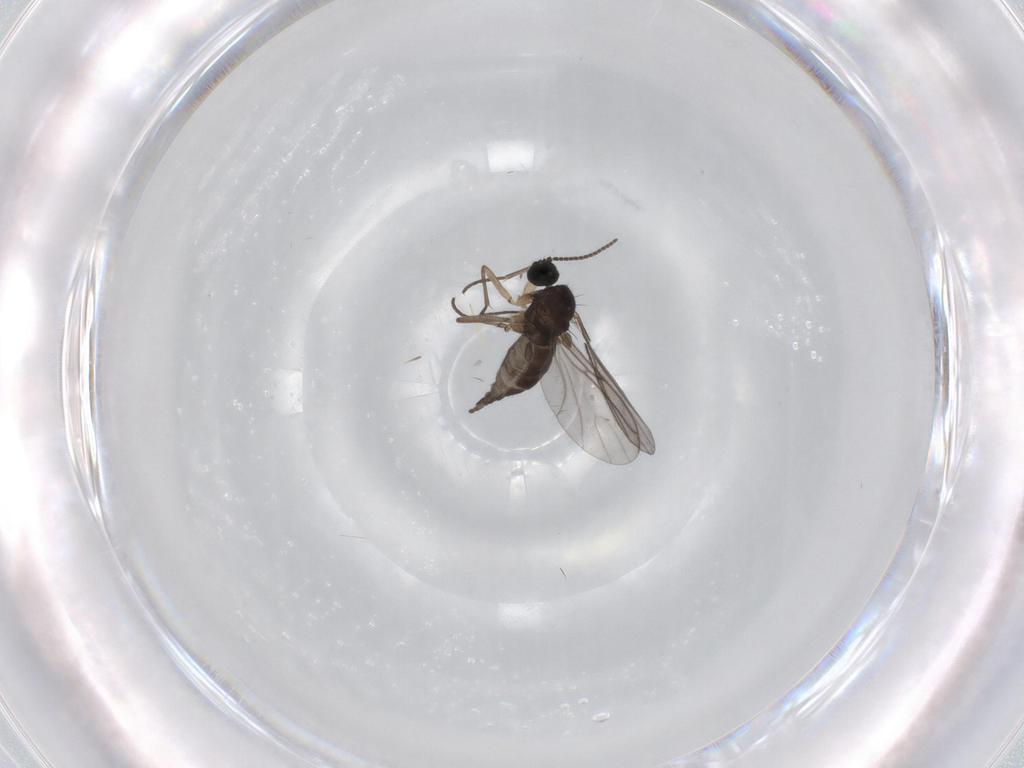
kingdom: Animalia
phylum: Arthropoda
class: Insecta
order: Diptera
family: Sciaridae
